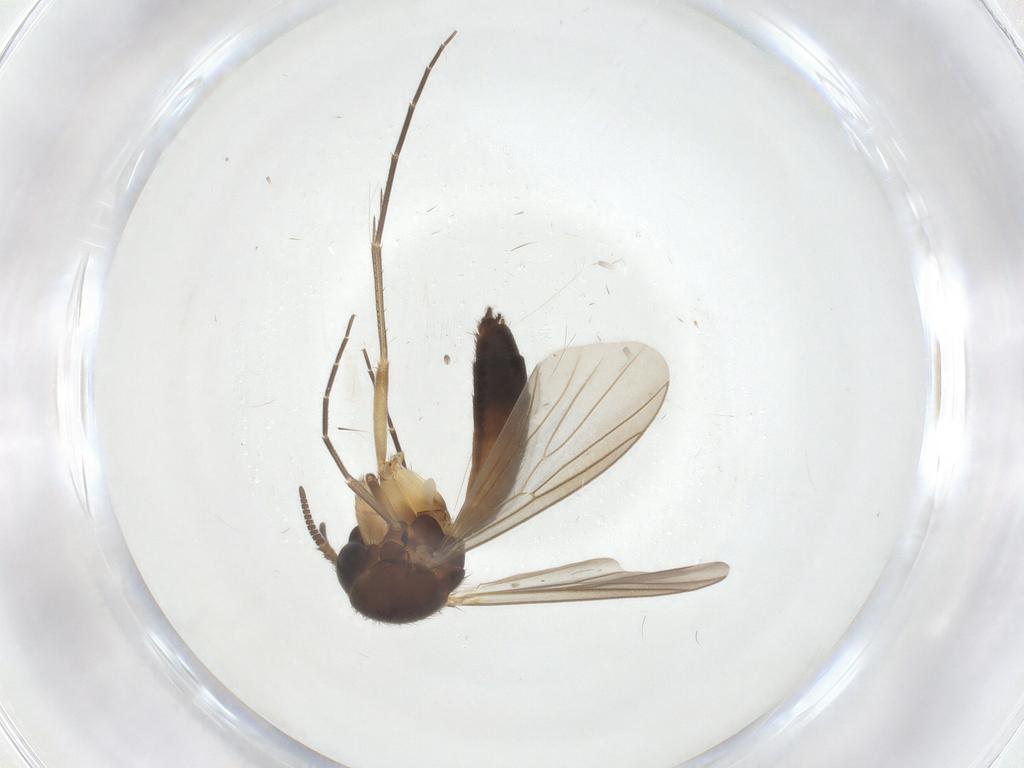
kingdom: Animalia
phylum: Arthropoda
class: Insecta
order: Diptera
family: Mycetophilidae
